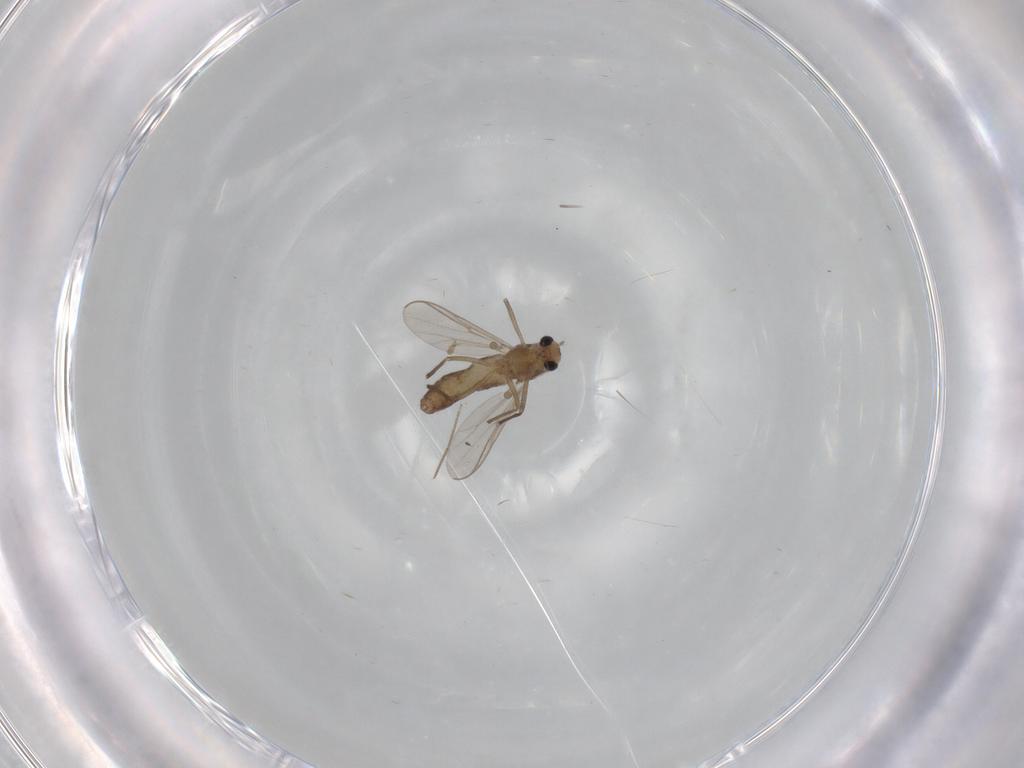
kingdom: Animalia
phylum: Arthropoda
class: Insecta
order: Diptera
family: Chironomidae
